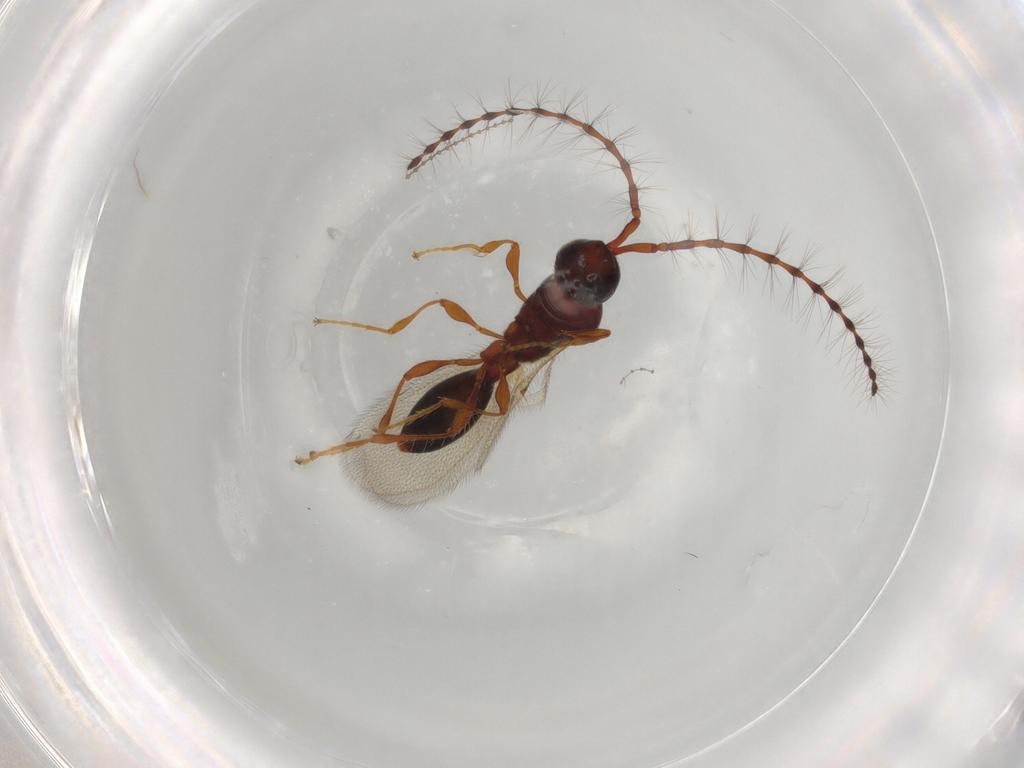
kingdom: Animalia
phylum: Arthropoda
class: Insecta
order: Hymenoptera
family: Diapriidae
